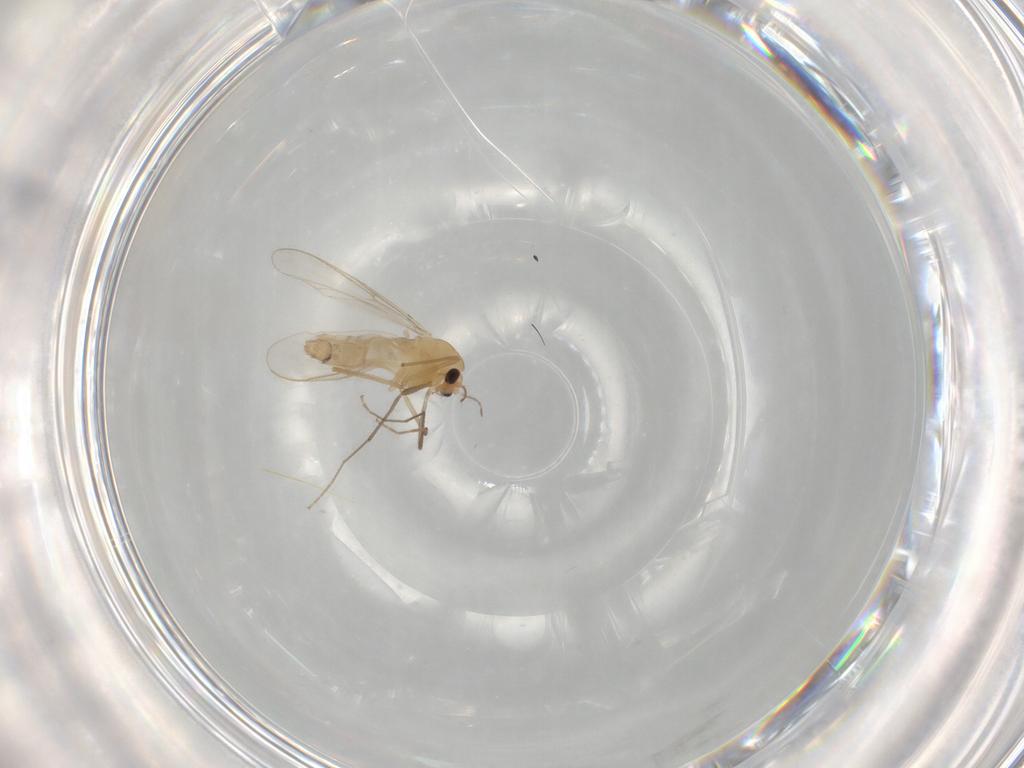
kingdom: Animalia
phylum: Arthropoda
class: Insecta
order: Diptera
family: Chironomidae
